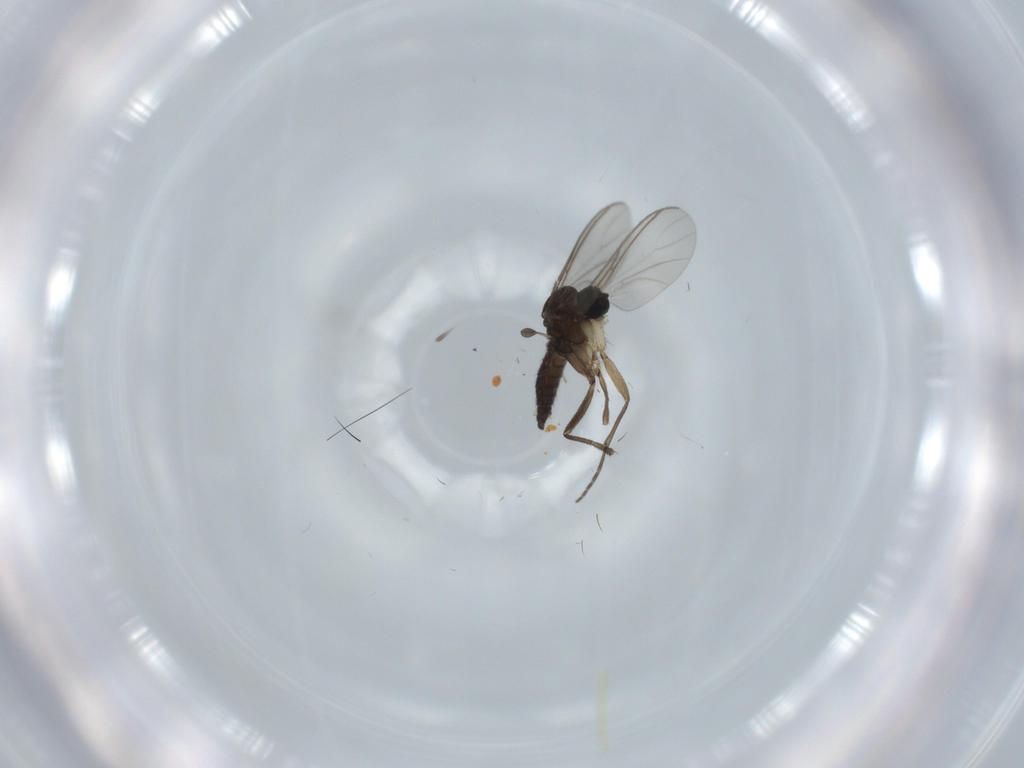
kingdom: Animalia
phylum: Arthropoda
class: Insecta
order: Diptera
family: Sciaridae
